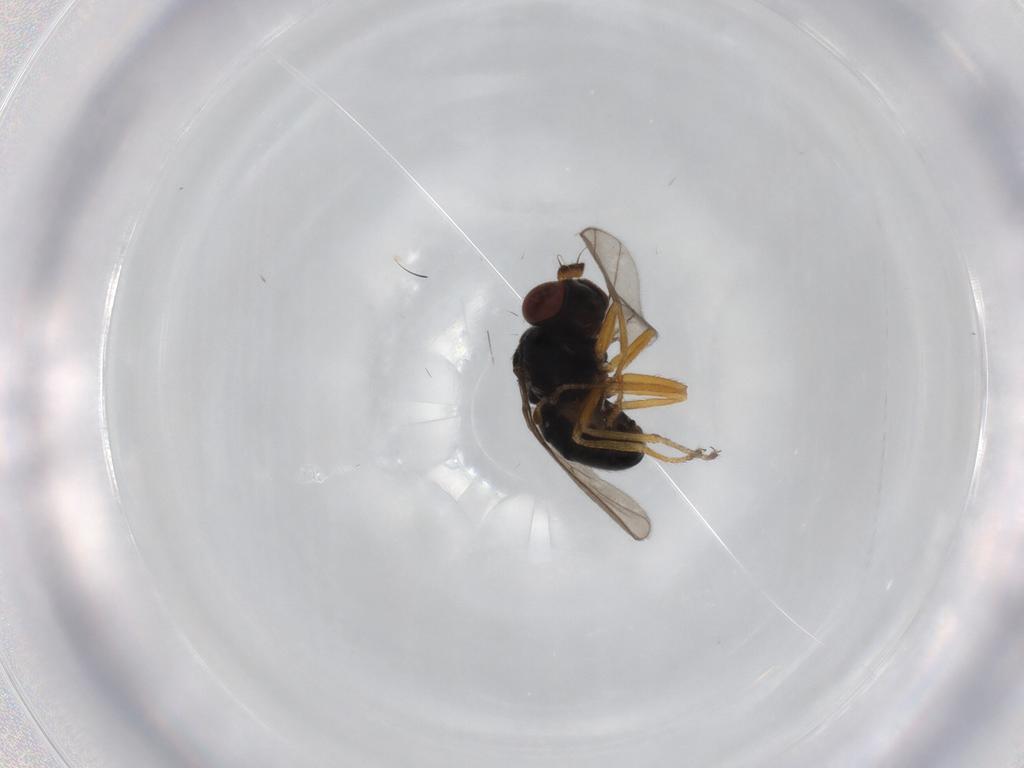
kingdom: Animalia
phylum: Arthropoda
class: Insecta
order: Diptera
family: Ephydridae
